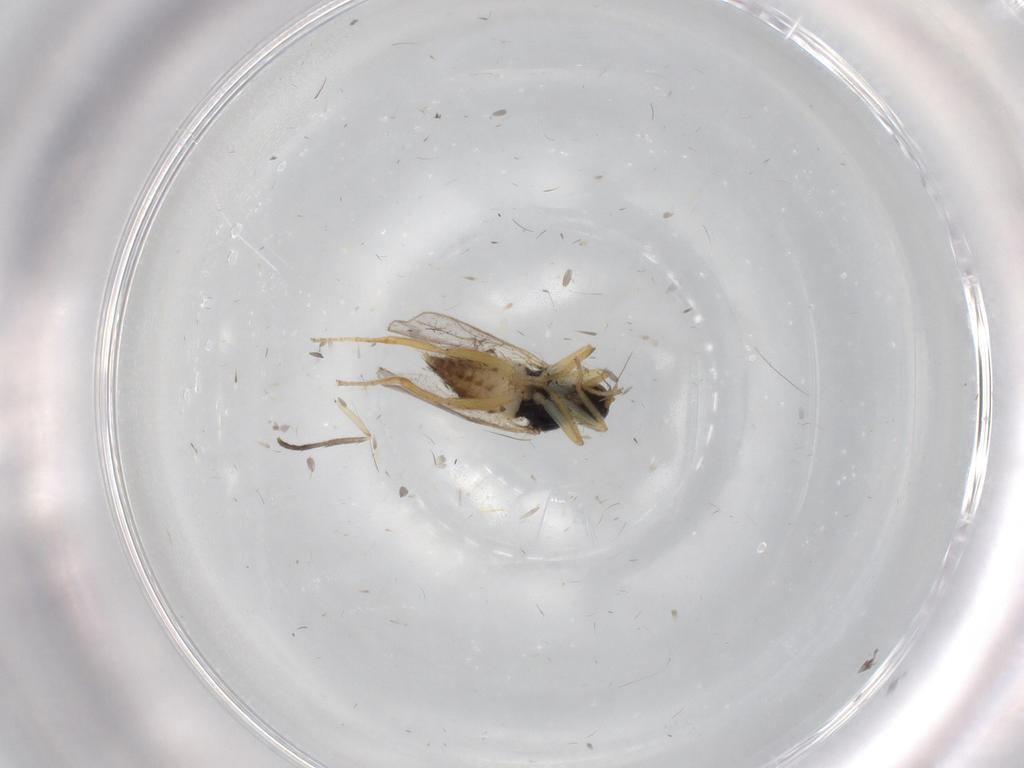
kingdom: Animalia
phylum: Arthropoda
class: Insecta
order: Diptera
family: Hybotidae
